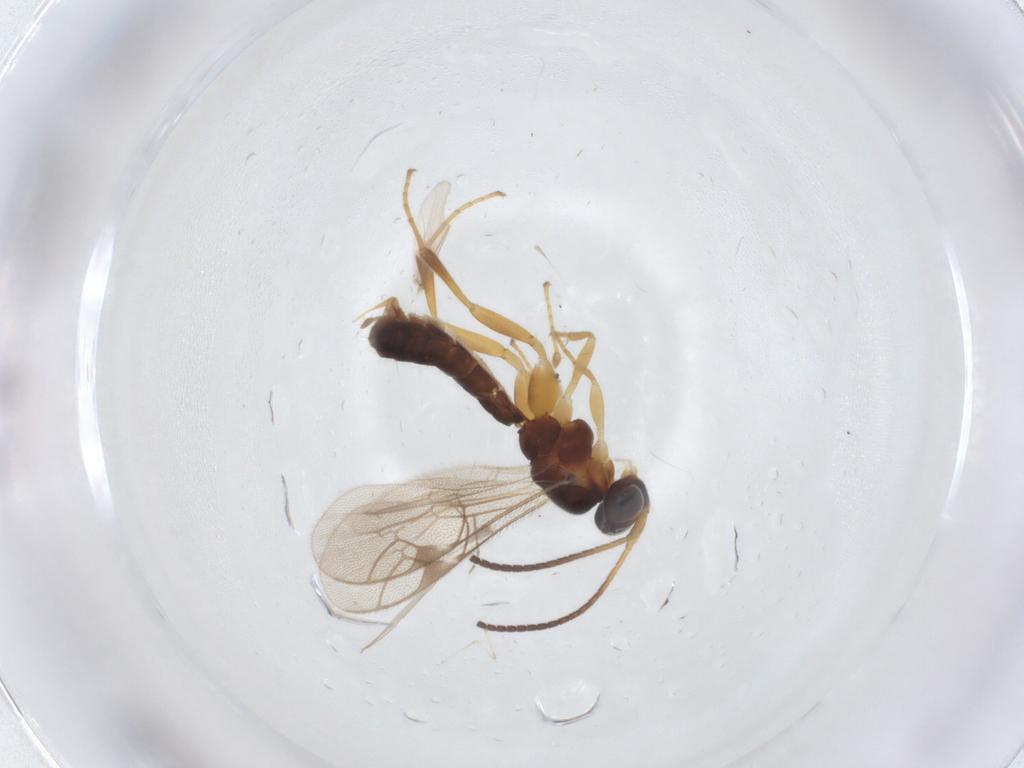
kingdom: Animalia
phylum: Arthropoda
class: Insecta
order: Hymenoptera
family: Ichneumonidae
